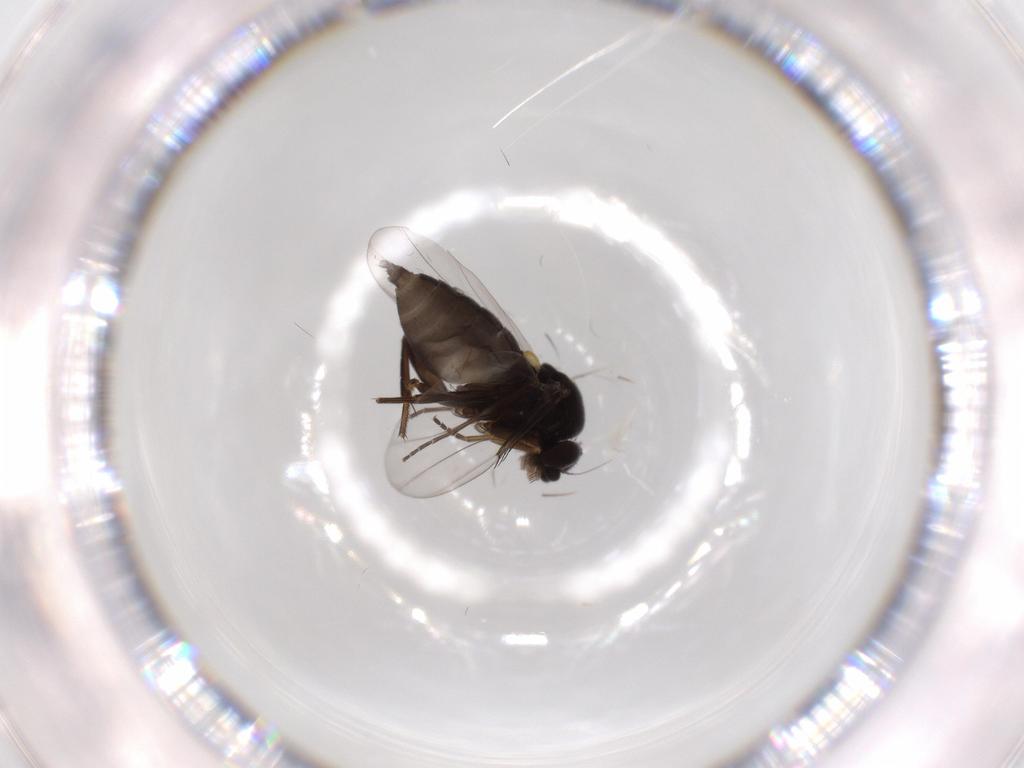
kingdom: Animalia
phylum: Arthropoda
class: Insecta
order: Diptera
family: Phoridae
